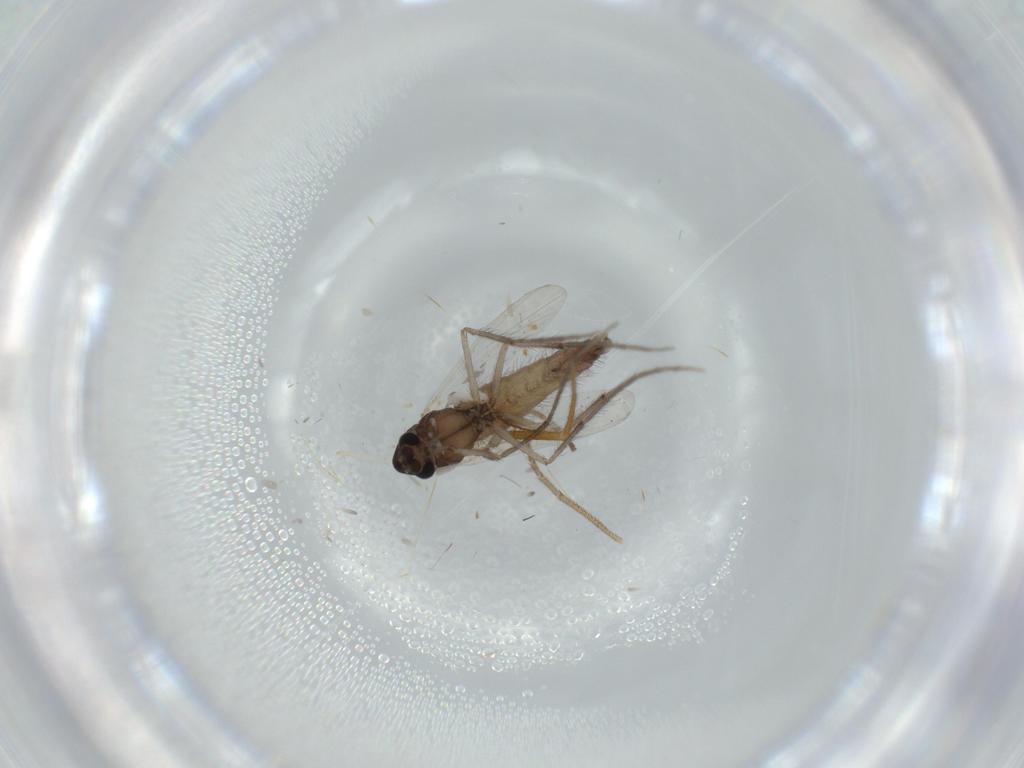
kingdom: Animalia
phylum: Arthropoda
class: Insecta
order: Diptera
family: Chironomidae
